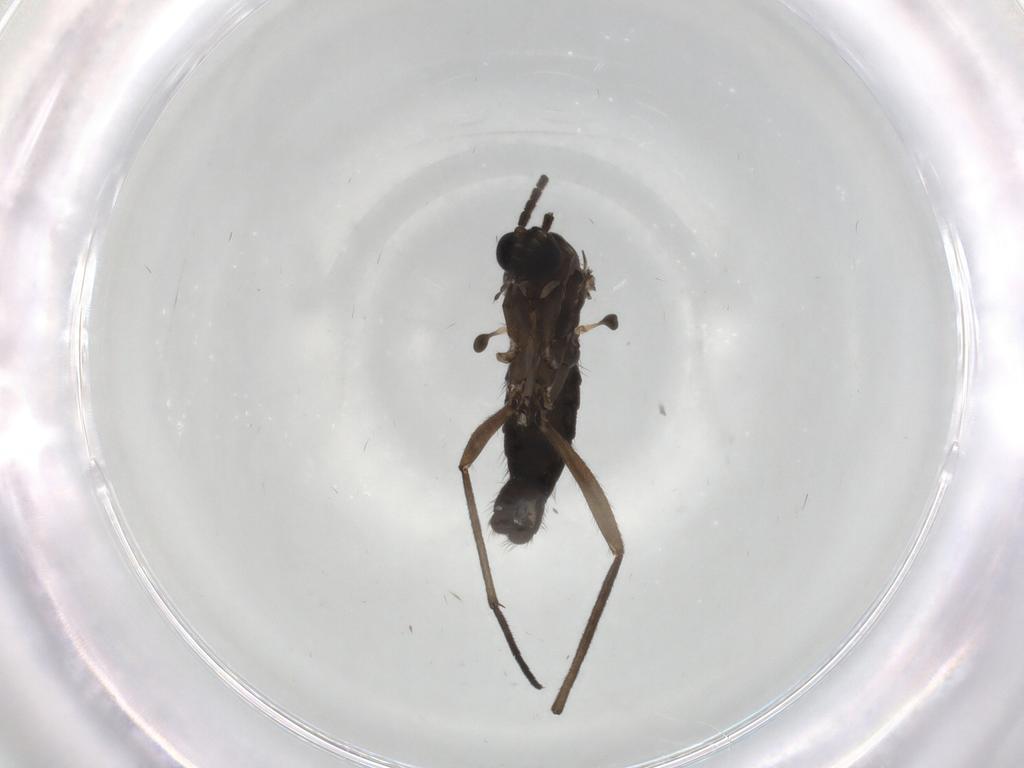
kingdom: Animalia
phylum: Arthropoda
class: Insecta
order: Diptera
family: Sciaridae
